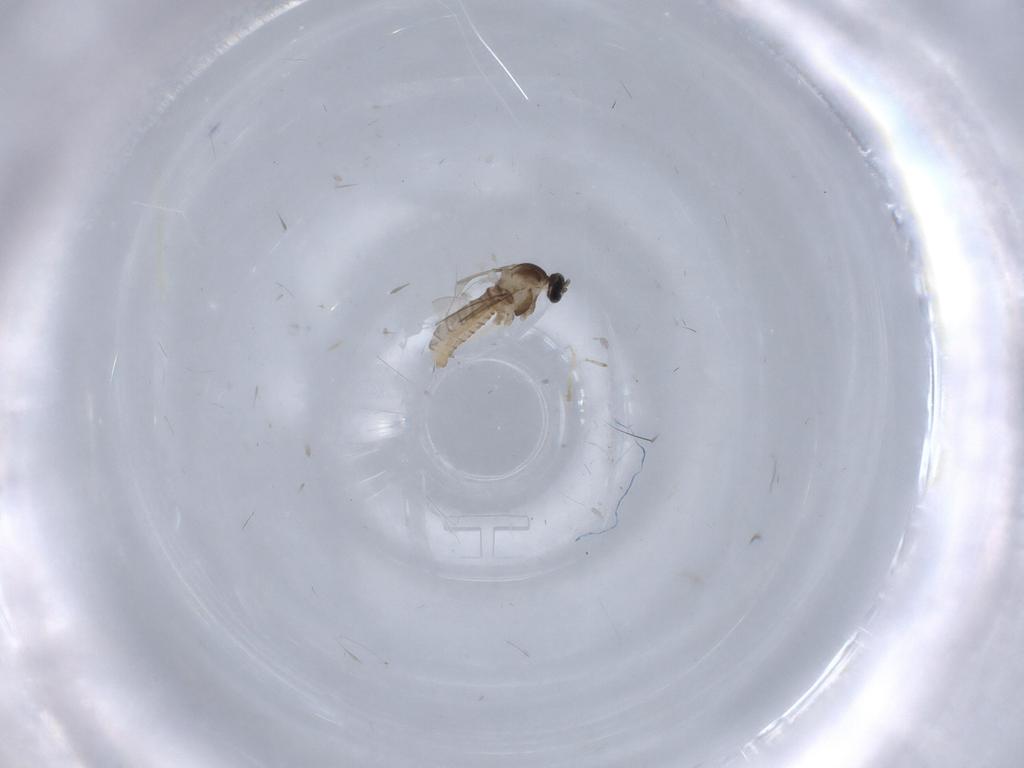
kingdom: Animalia
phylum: Arthropoda
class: Insecta
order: Diptera
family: Cecidomyiidae
